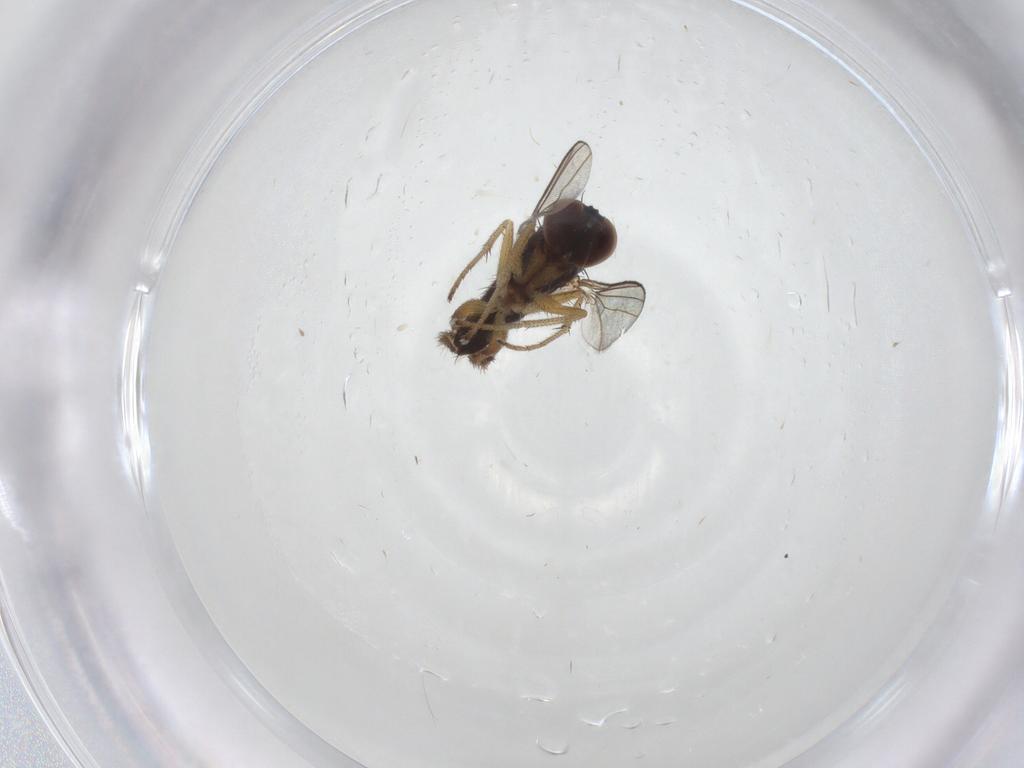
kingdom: Animalia
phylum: Arthropoda
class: Insecta
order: Diptera
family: Dolichopodidae
